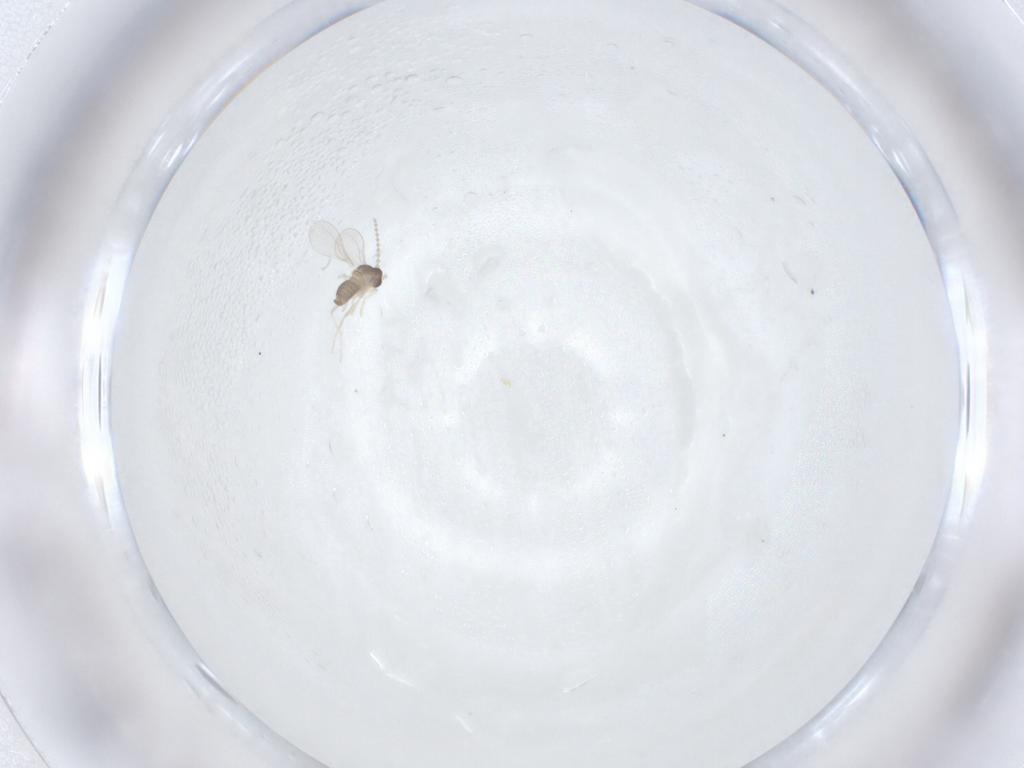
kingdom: Animalia
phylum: Arthropoda
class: Insecta
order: Diptera
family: Cecidomyiidae
